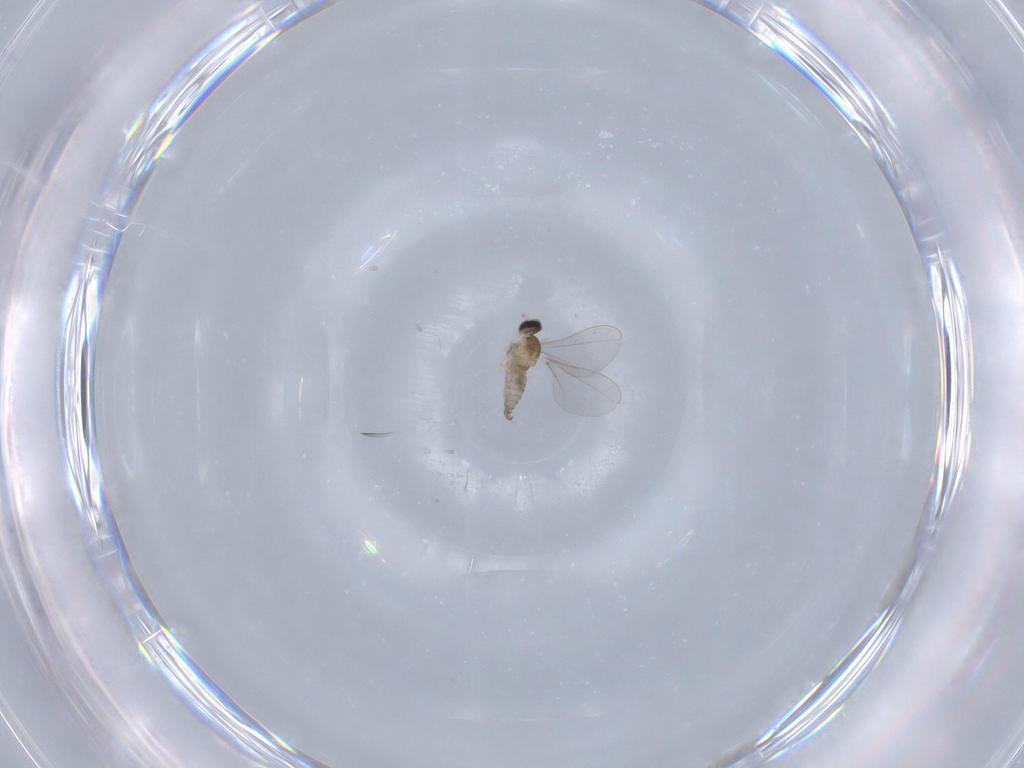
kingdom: Animalia
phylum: Arthropoda
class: Insecta
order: Diptera
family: Cecidomyiidae
